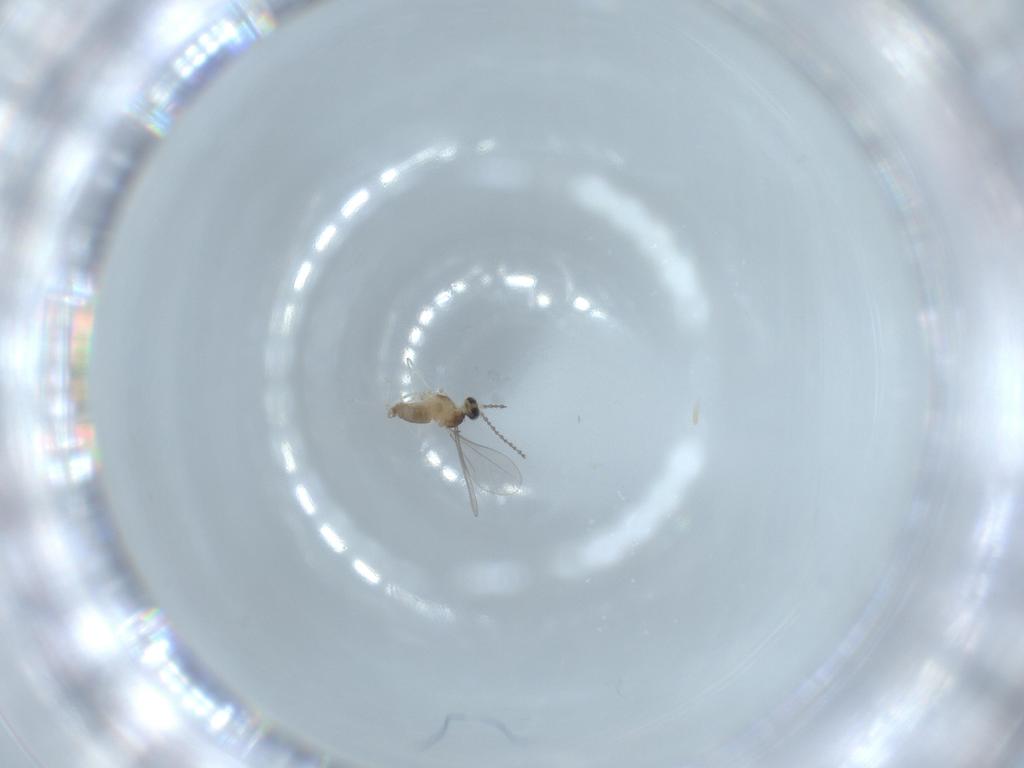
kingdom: Animalia
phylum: Arthropoda
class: Insecta
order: Diptera
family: Cecidomyiidae
